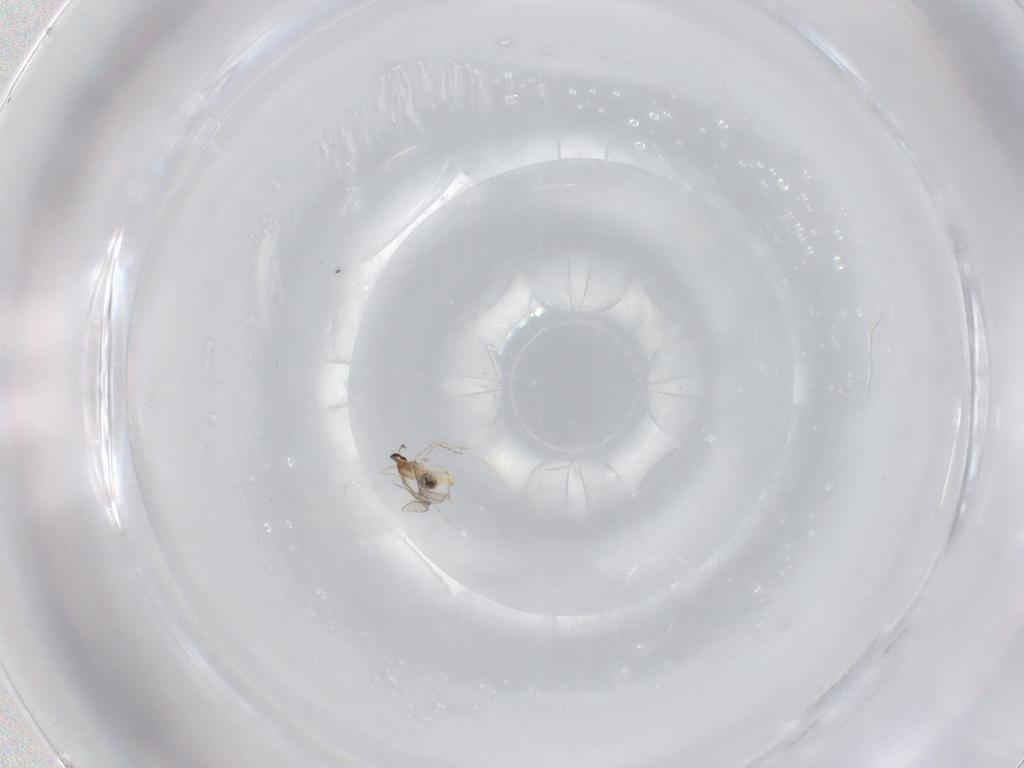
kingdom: Animalia
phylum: Arthropoda
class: Insecta
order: Diptera
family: Cecidomyiidae
